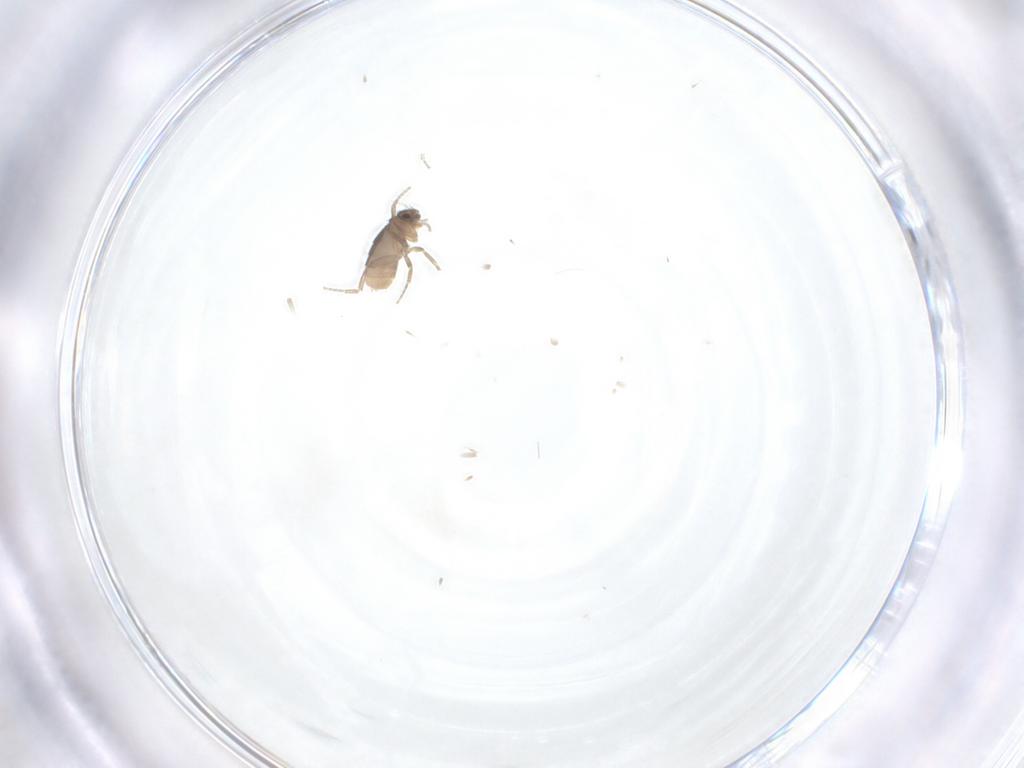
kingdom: Animalia
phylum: Arthropoda
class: Insecta
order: Diptera
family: Phoridae
